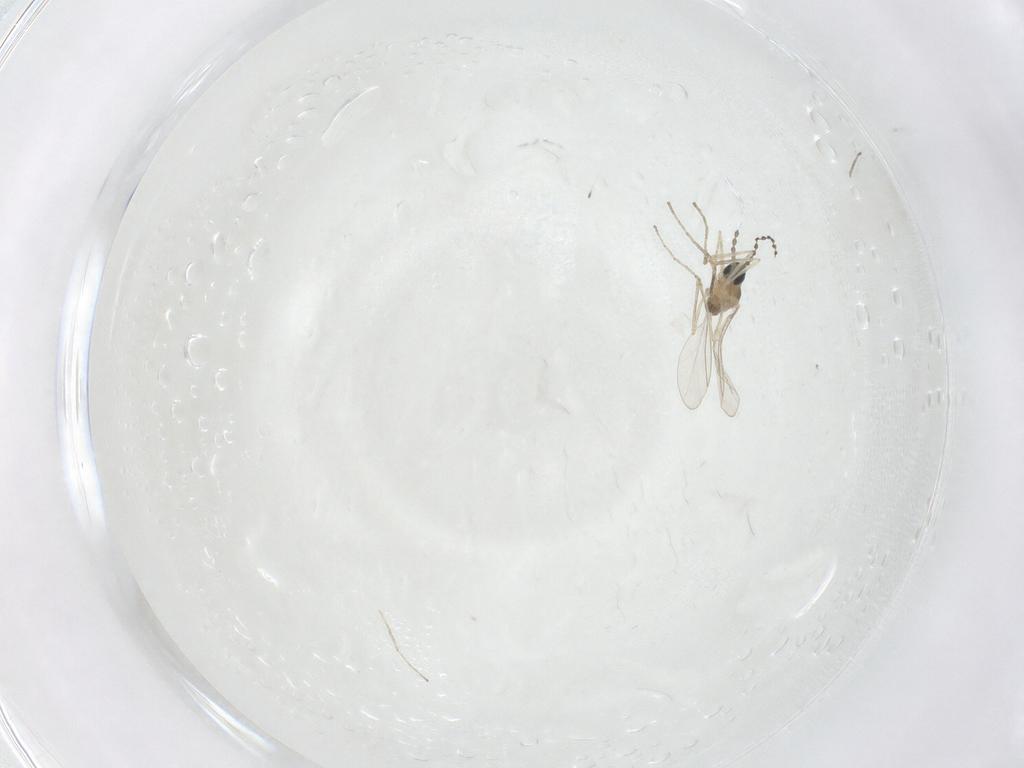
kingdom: Animalia
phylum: Arthropoda
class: Insecta
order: Diptera
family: Cecidomyiidae
